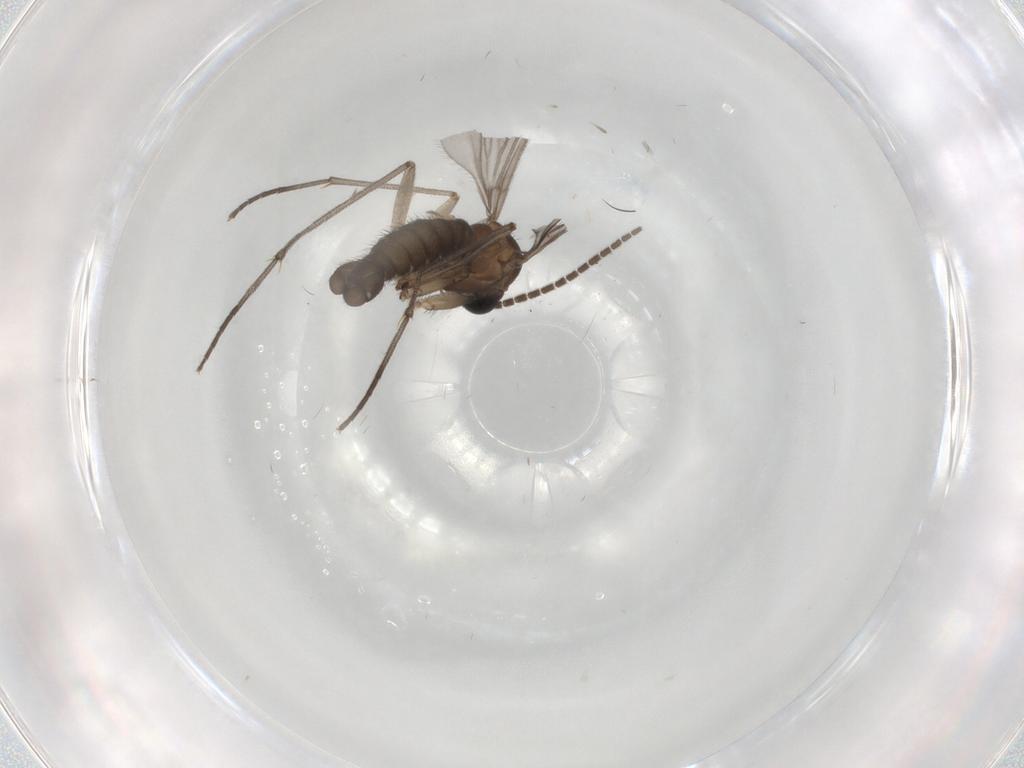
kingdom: Animalia
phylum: Arthropoda
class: Insecta
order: Diptera
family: Sciaridae
